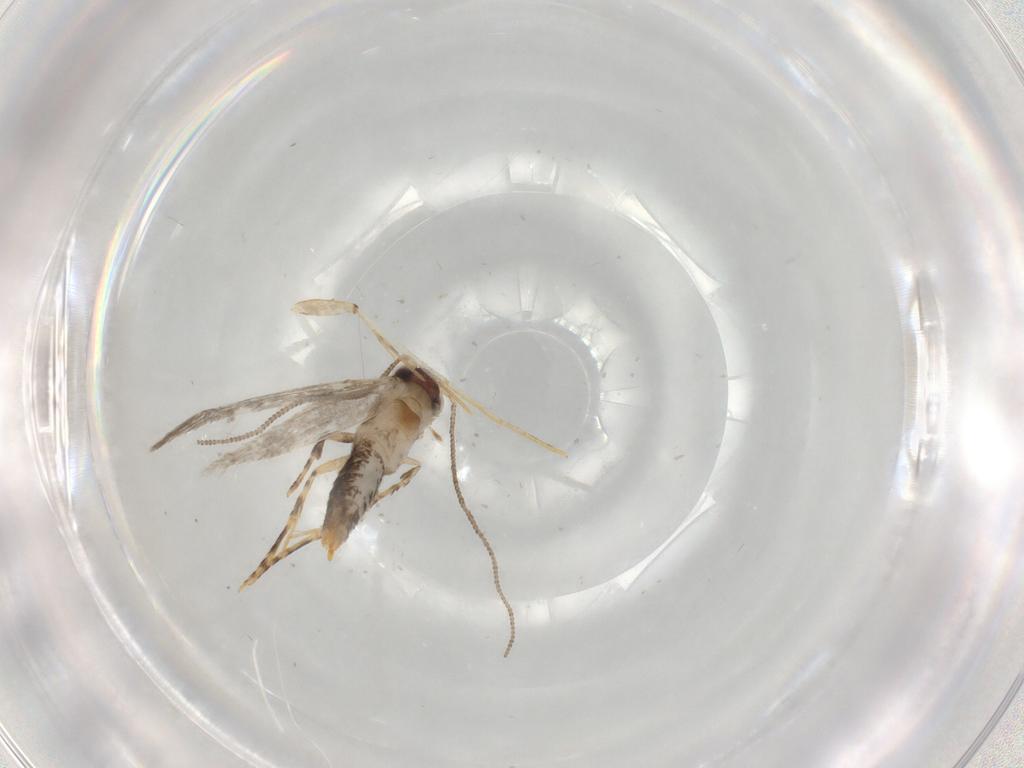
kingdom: Animalia
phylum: Arthropoda
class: Insecta
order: Lepidoptera
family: Tineidae
